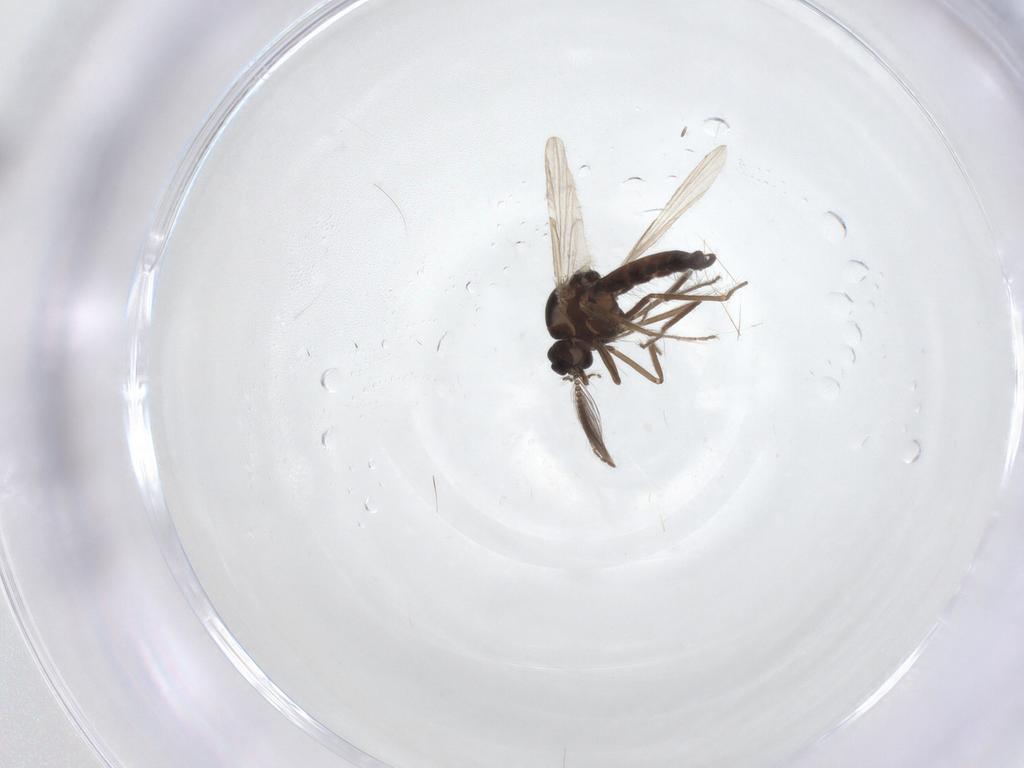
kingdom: Animalia
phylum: Arthropoda
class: Insecta
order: Diptera
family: Ceratopogonidae
